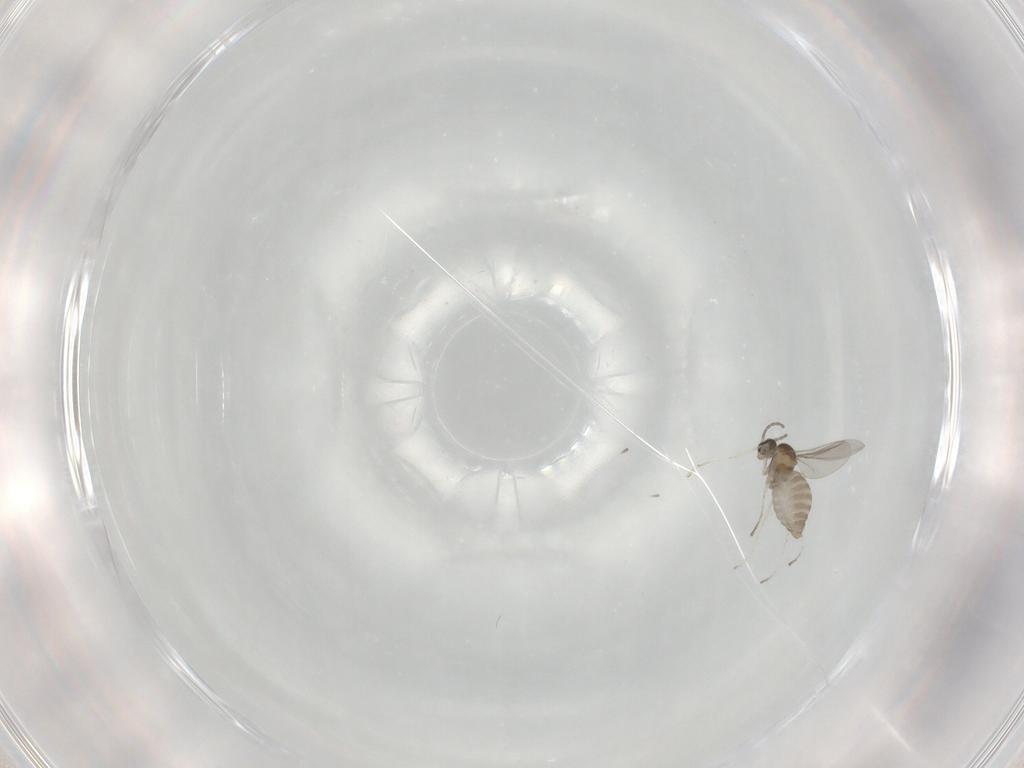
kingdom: Animalia
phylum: Arthropoda
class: Insecta
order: Diptera
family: Cecidomyiidae
